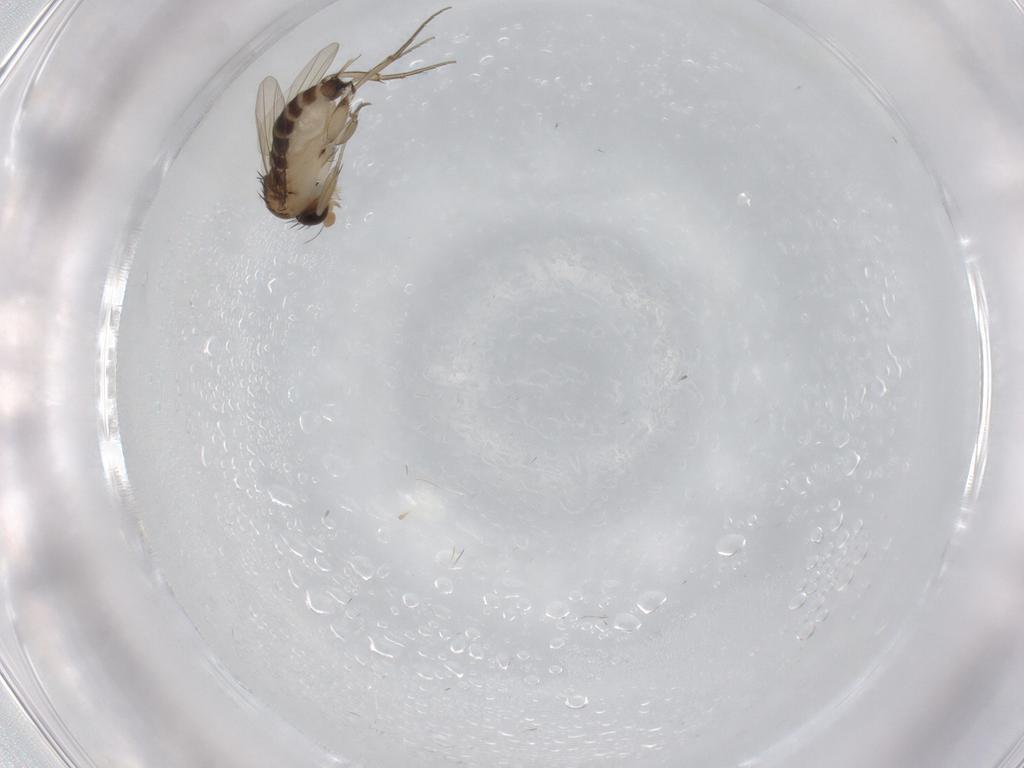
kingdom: Animalia
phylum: Arthropoda
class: Insecta
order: Diptera
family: Phoridae
